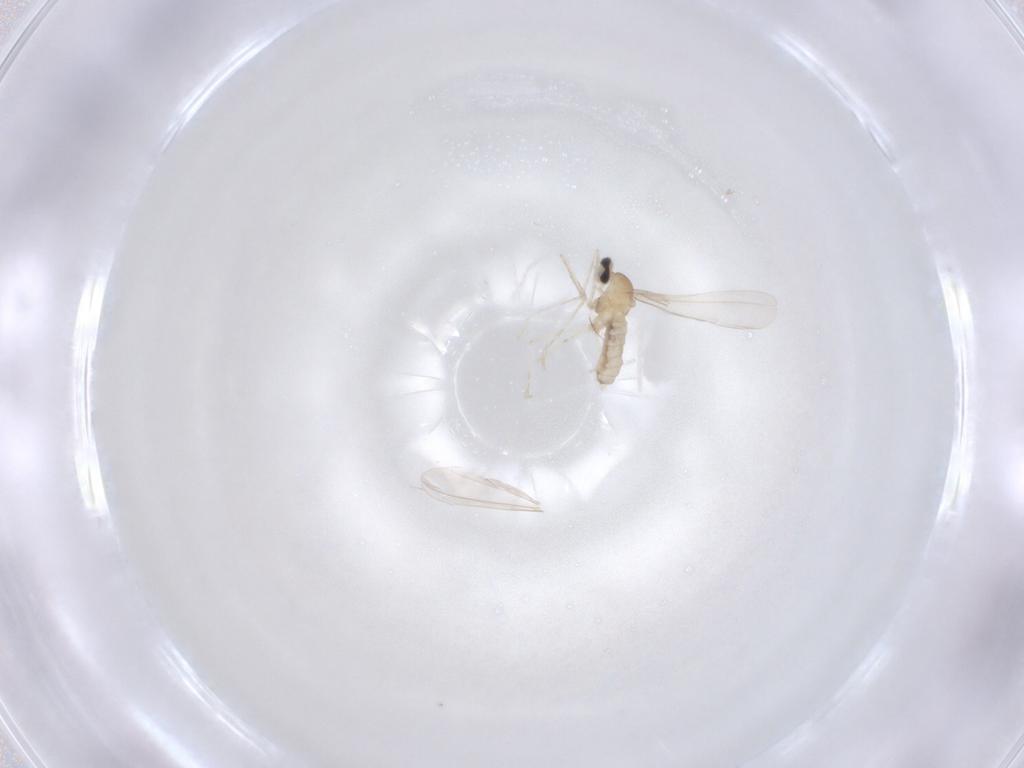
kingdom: Animalia
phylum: Arthropoda
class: Insecta
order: Diptera
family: Cecidomyiidae
